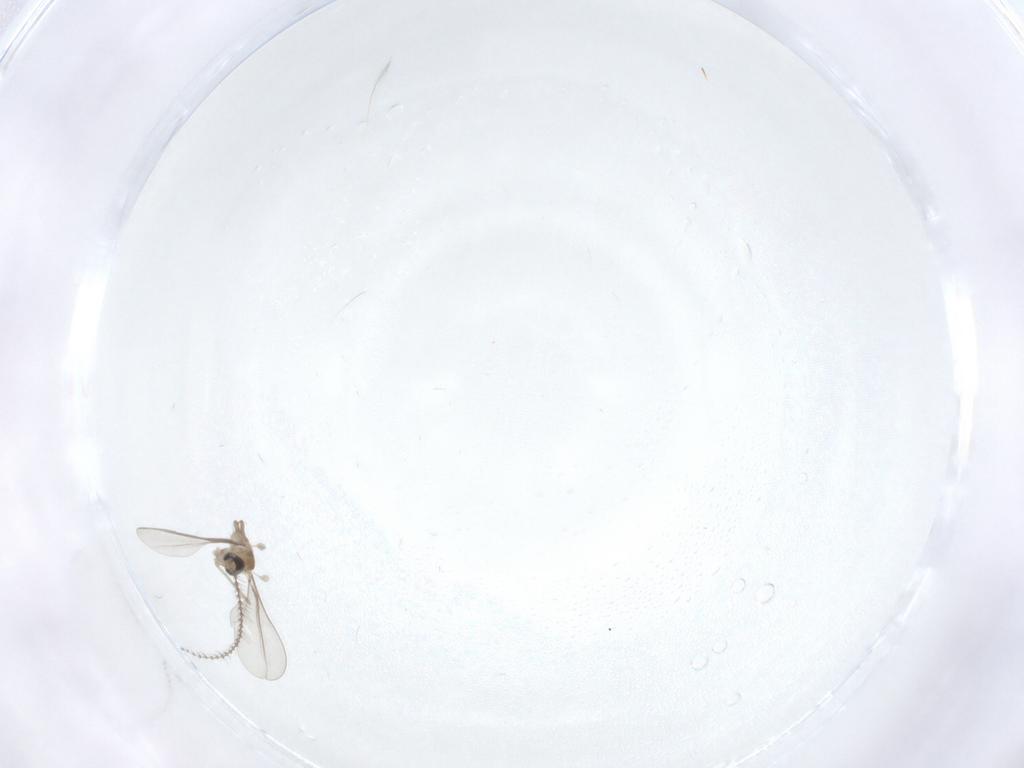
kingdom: Animalia
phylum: Arthropoda
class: Insecta
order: Diptera
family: Cecidomyiidae
